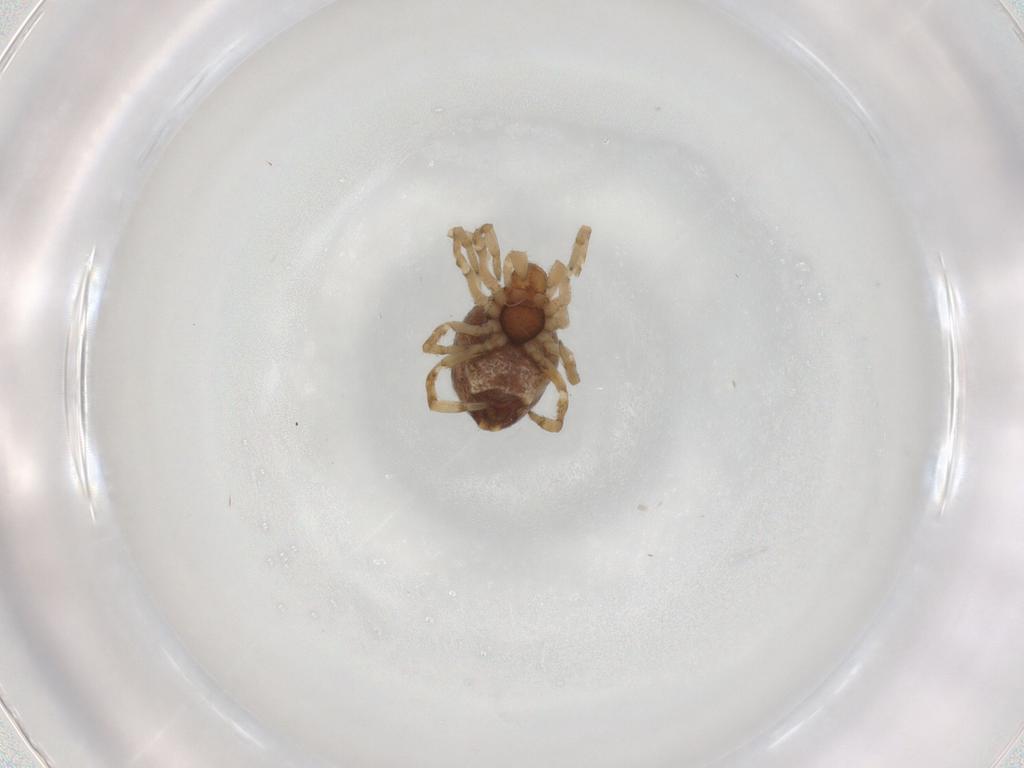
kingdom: Animalia
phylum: Arthropoda
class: Arachnida
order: Araneae
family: Dictynidae
